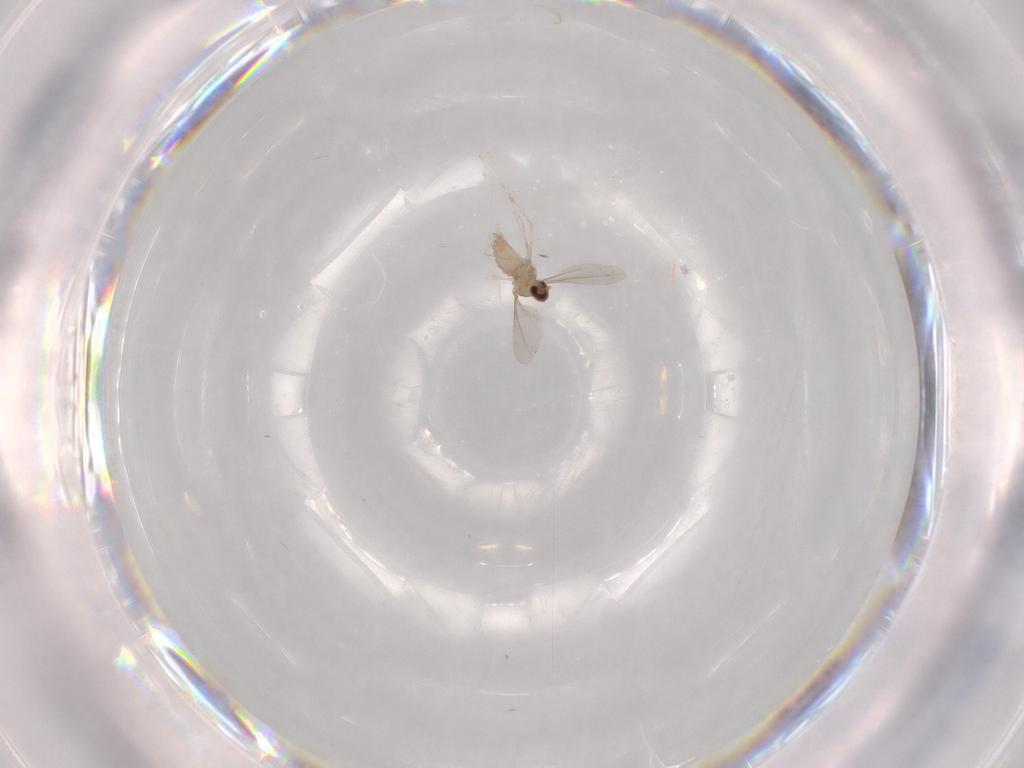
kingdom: Animalia
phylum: Arthropoda
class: Insecta
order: Diptera
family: Cecidomyiidae
